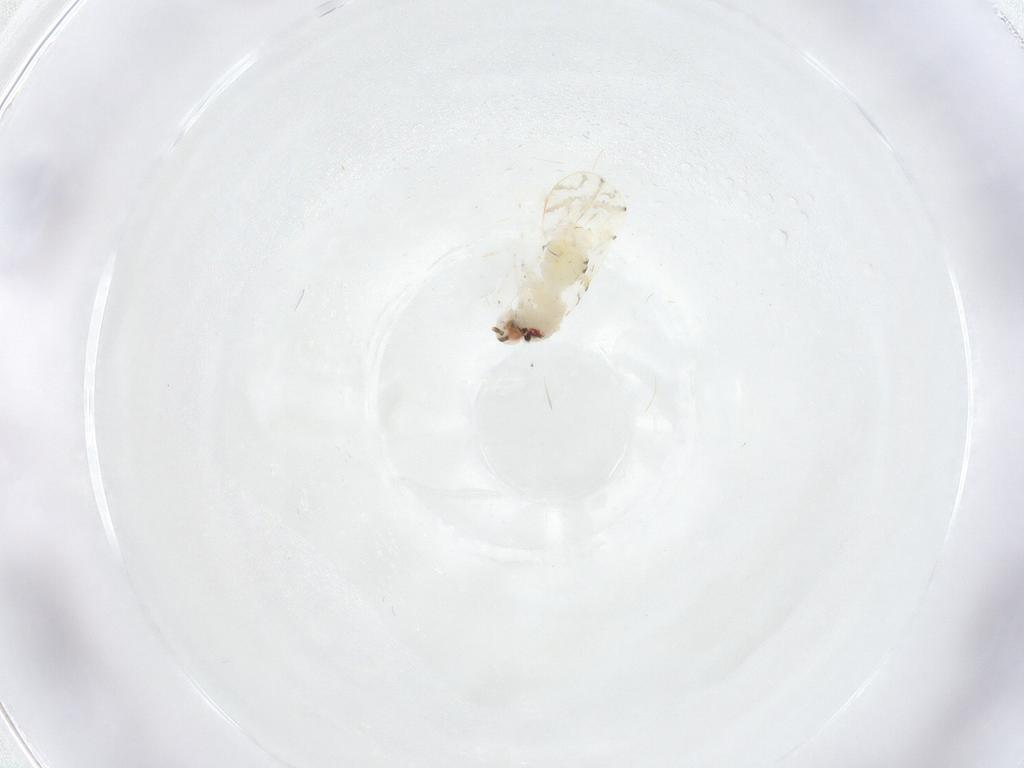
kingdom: Animalia
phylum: Arthropoda
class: Insecta
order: Hemiptera
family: Aleyrodidae
